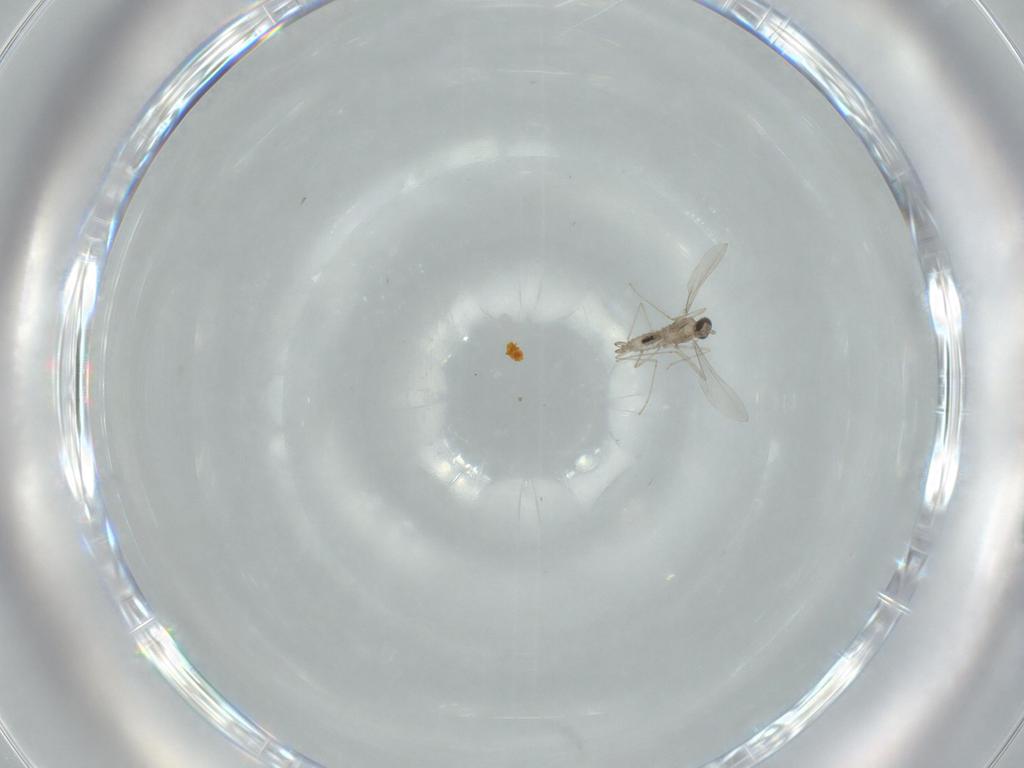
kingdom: Animalia
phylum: Arthropoda
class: Insecta
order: Diptera
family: Cecidomyiidae
